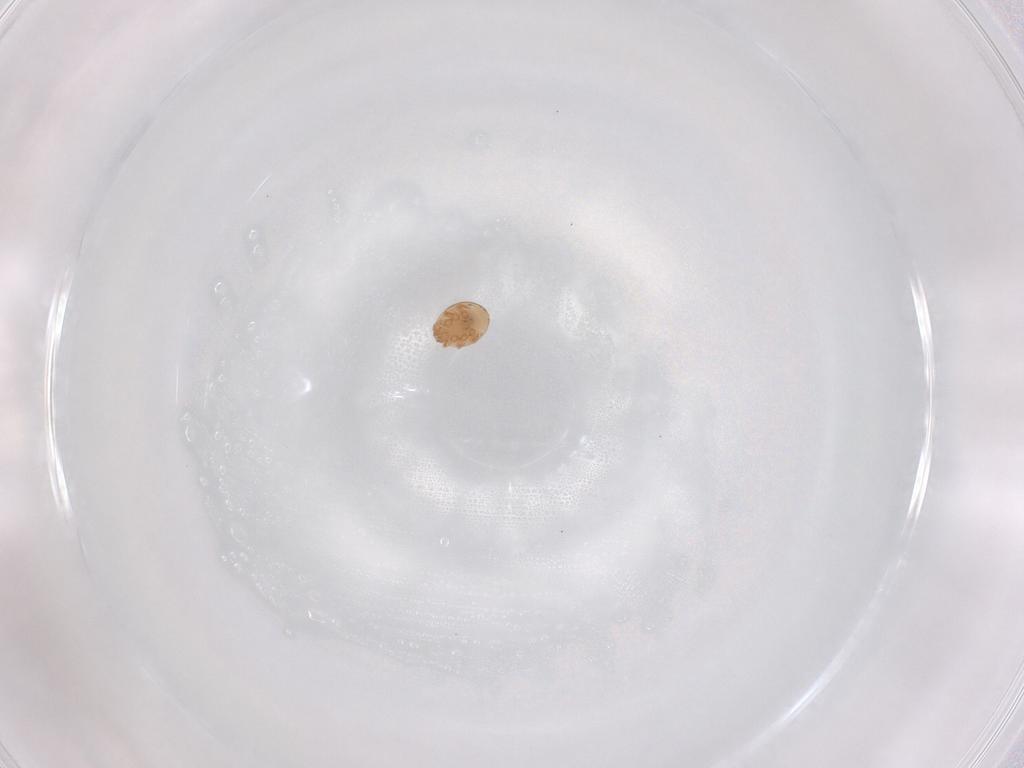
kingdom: Animalia
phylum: Arthropoda
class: Arachnida
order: Mesostigmata
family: Trematuridae
